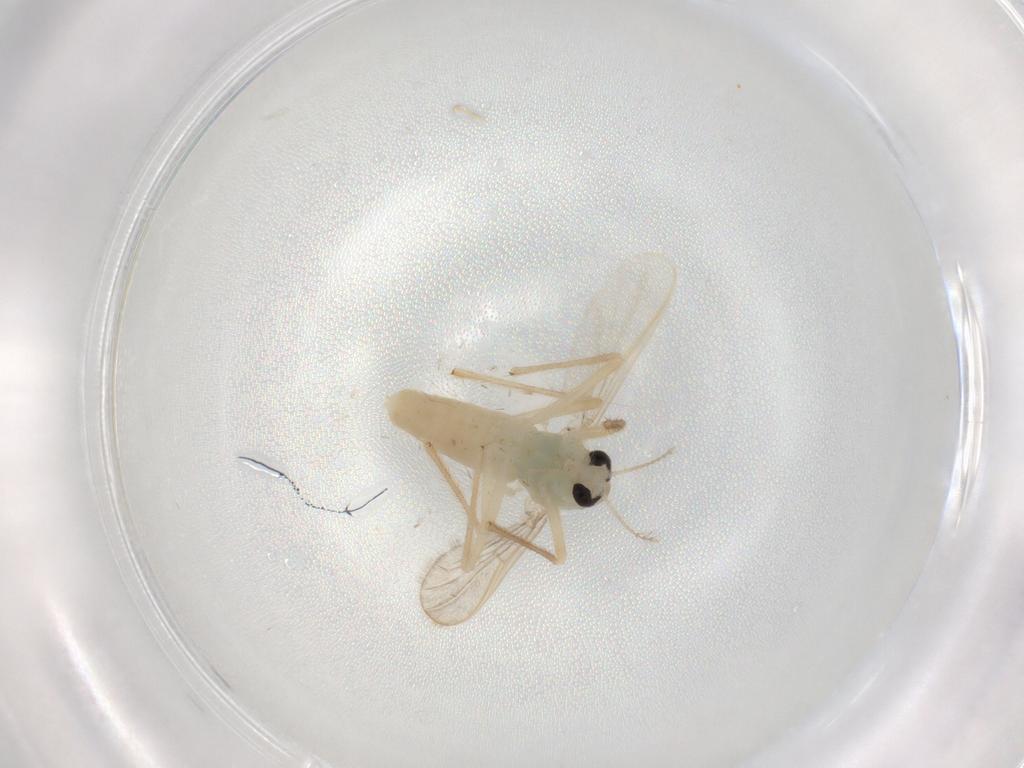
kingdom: Animalia
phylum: Arthropoda
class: Insecta
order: Diptera
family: Chironomidae
